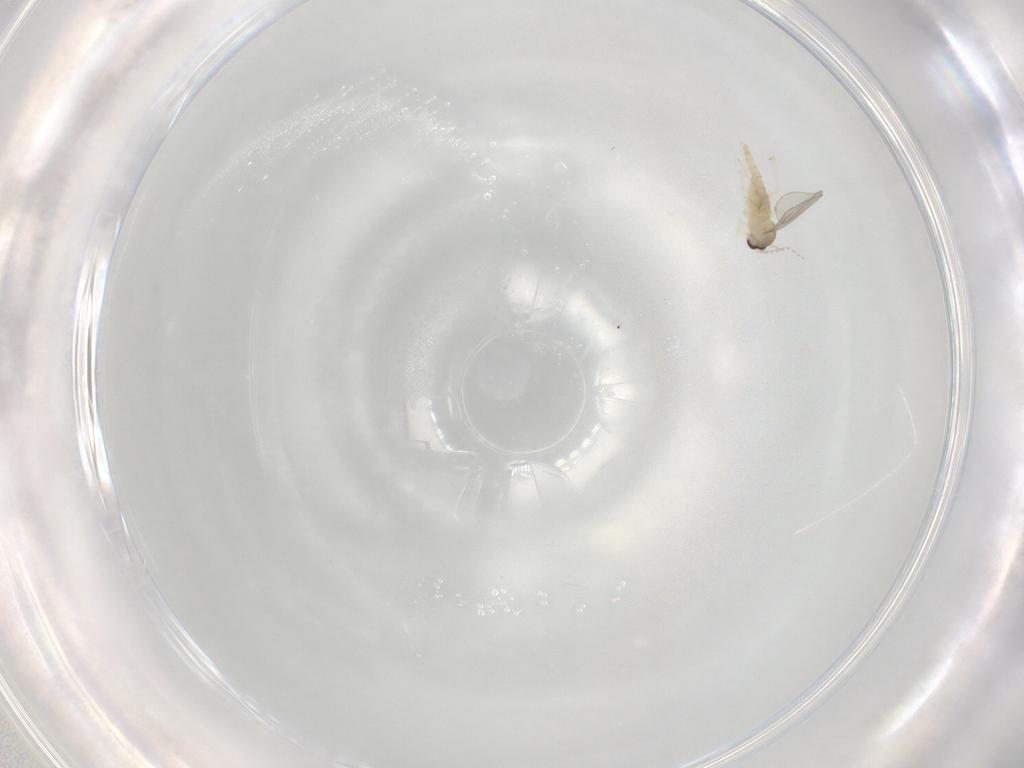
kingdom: Animalia
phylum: Arthropoda
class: Insecta
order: Diptera
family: Cecidomyiidae
